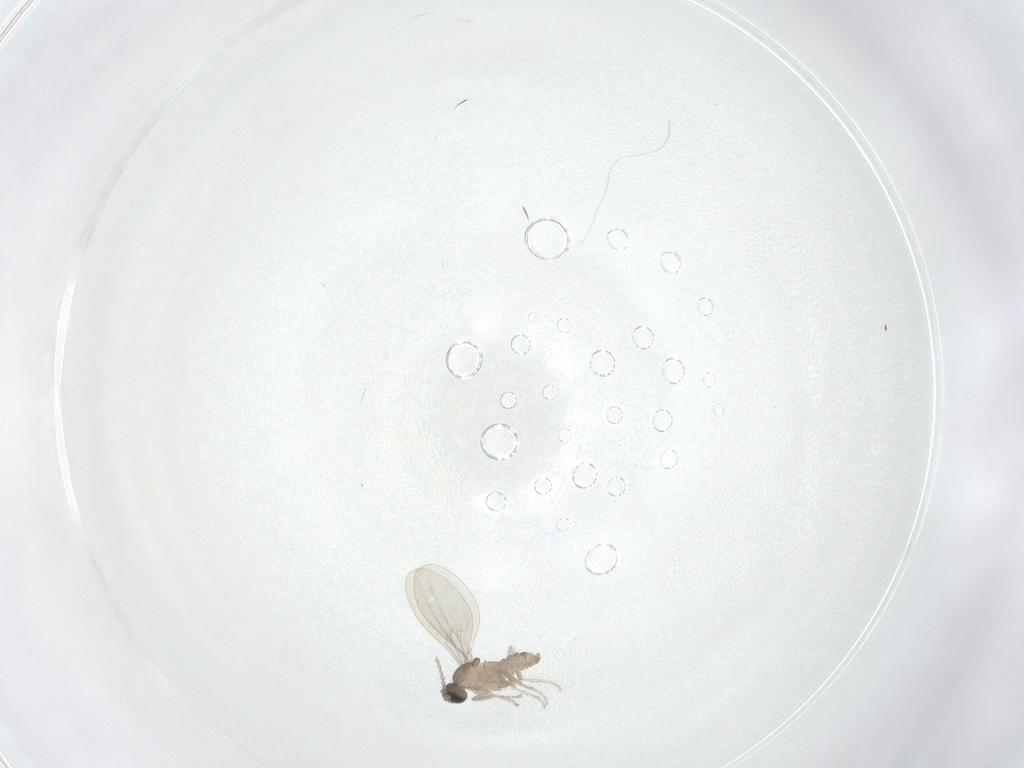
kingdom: Animalia
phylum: Arthropoda
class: Insecta
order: Diptera
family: Cecidomyiidae
